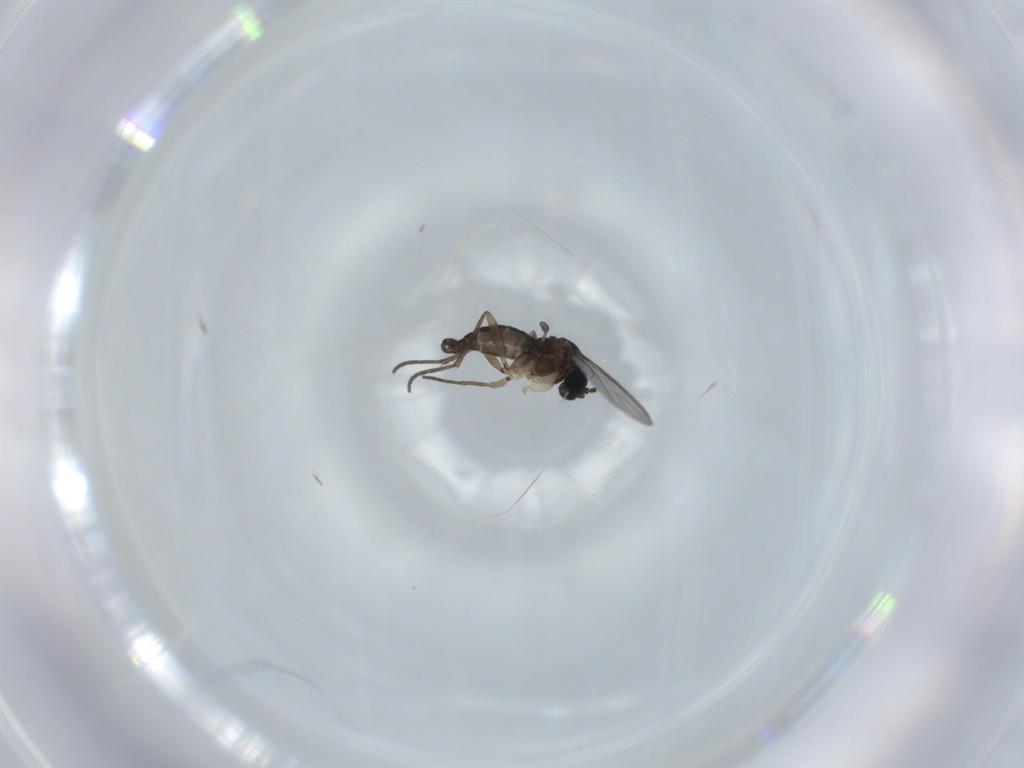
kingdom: Animalia
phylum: Arthropoda
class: Insecta
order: Diptera
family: Sciaridae
